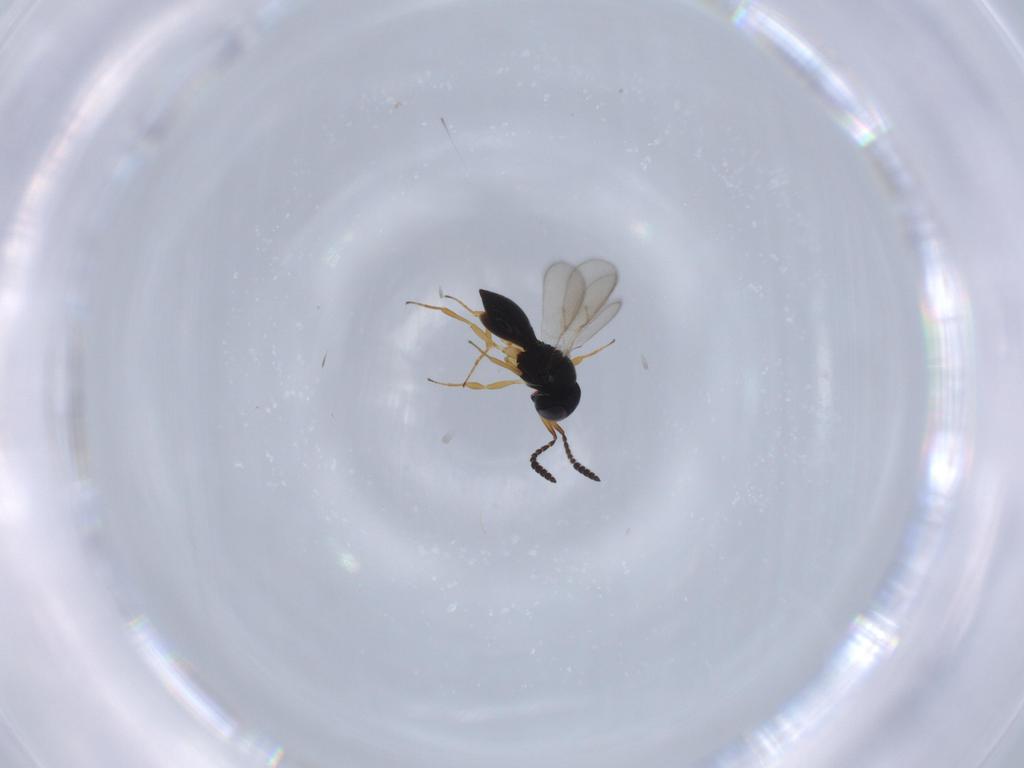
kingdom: Animalia
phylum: Arthropoda
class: Insecta
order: Hymenoptera
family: Scelionidae
